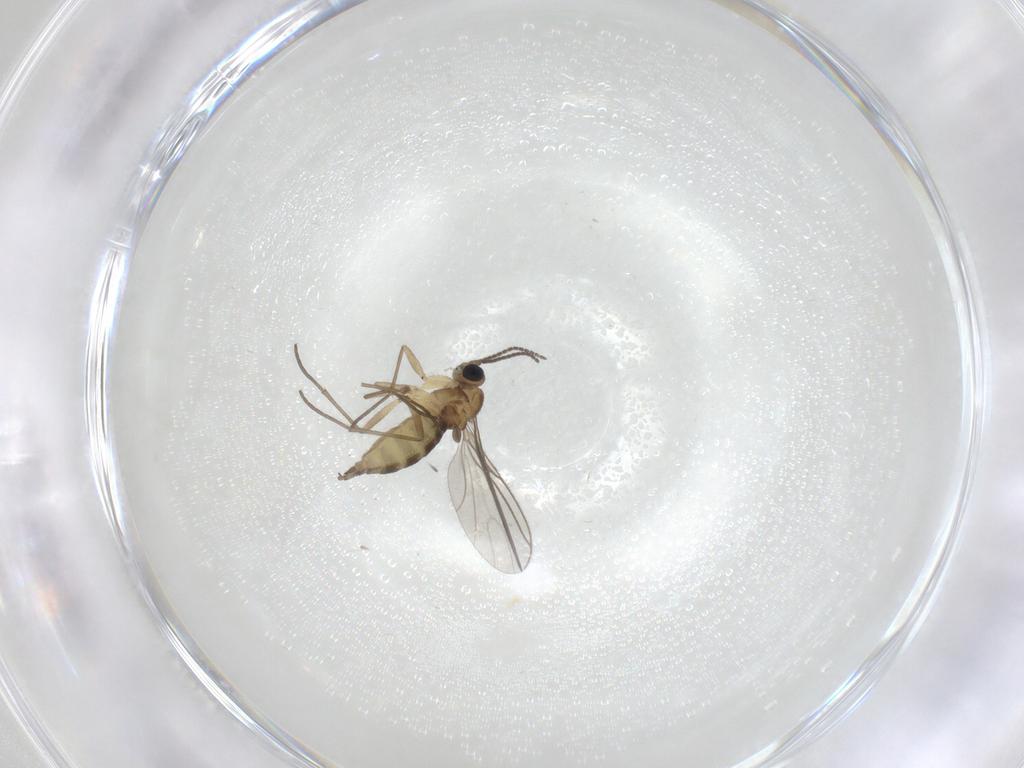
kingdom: Animalia
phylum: Arthropoda
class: Insecta
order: Diptera
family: Sciaridae
